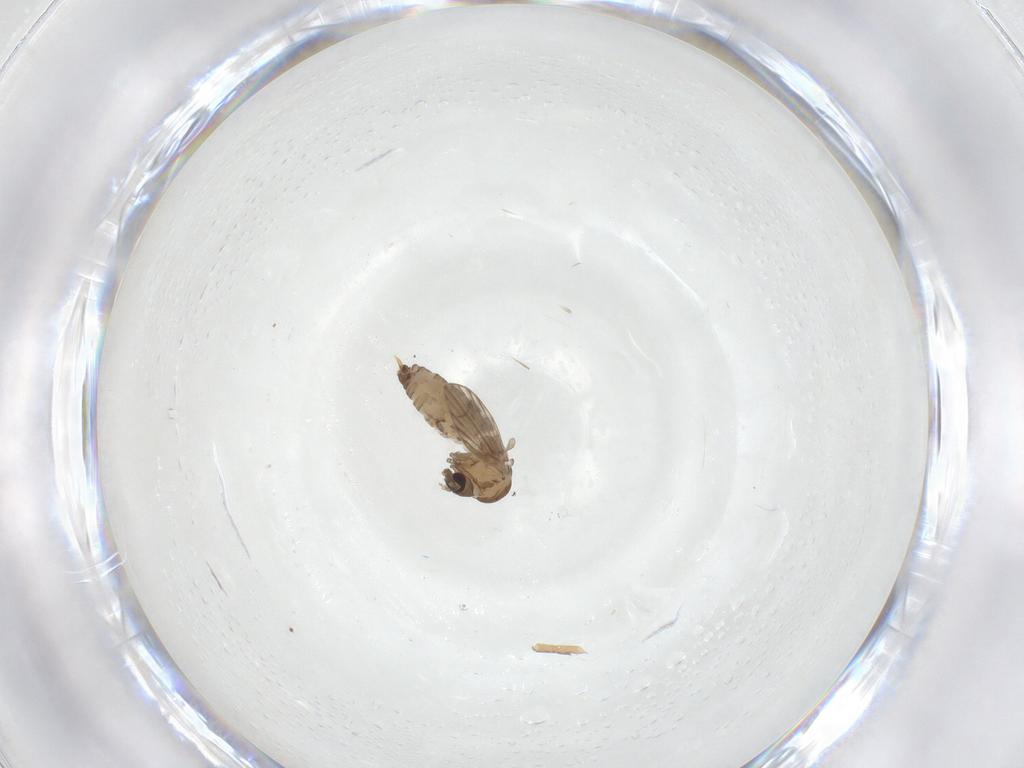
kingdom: Animalia
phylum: Arthropoda
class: Insecta
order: Diptera
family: Psychodidae
